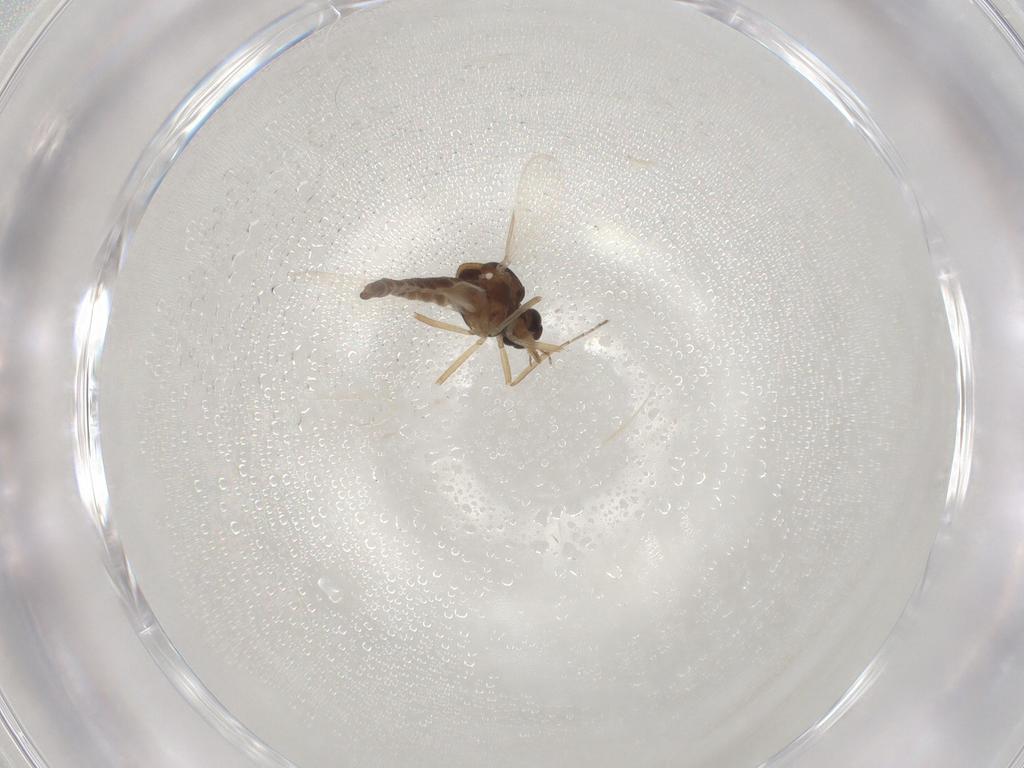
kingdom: Animalia
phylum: Arthropoda
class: Insecta
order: Diptera
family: Ceratopogonidae
